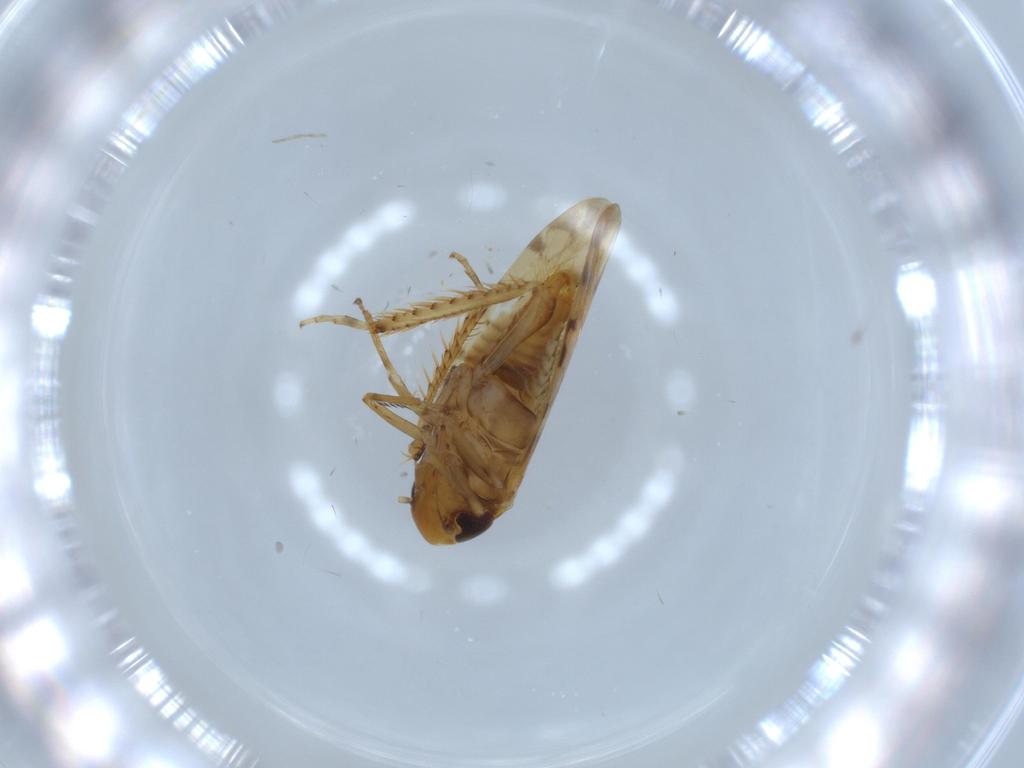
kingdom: Animalia
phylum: Arthropoda
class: Insecta
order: Hemiptera
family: Cicadellidae
